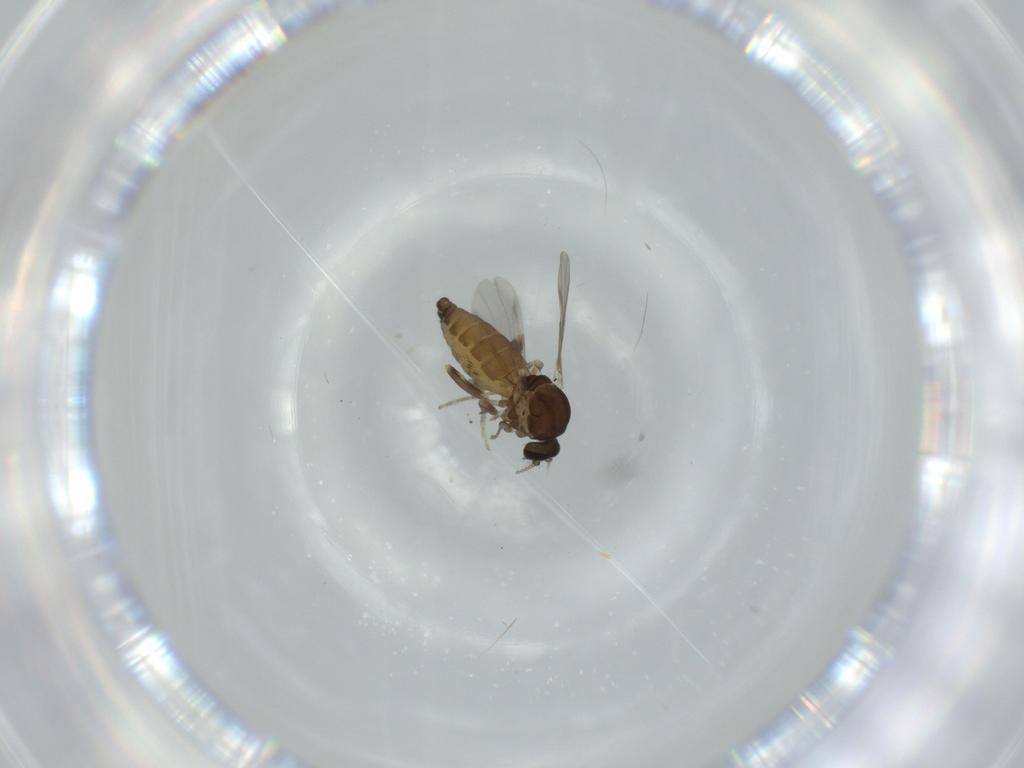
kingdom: Animalia
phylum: Arthropoda
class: Insecta
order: Diptera
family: Ceratopogonidae
